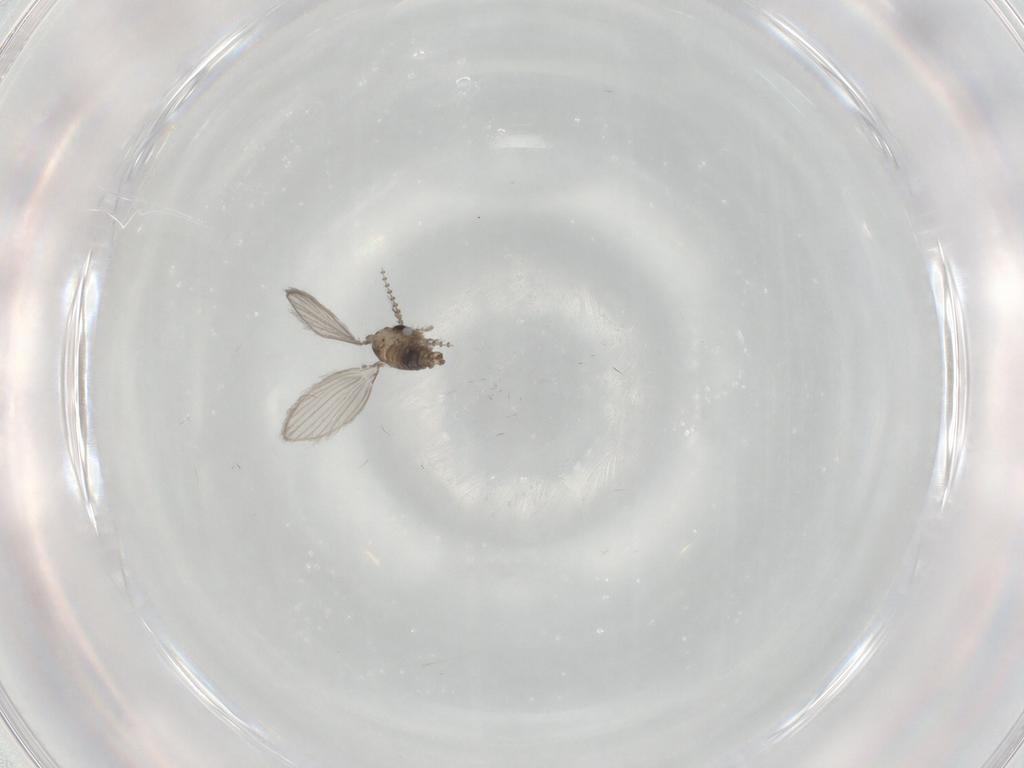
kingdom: Animalia
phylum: Arthropoda
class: Insecta
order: Diptera
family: Psychodidae
